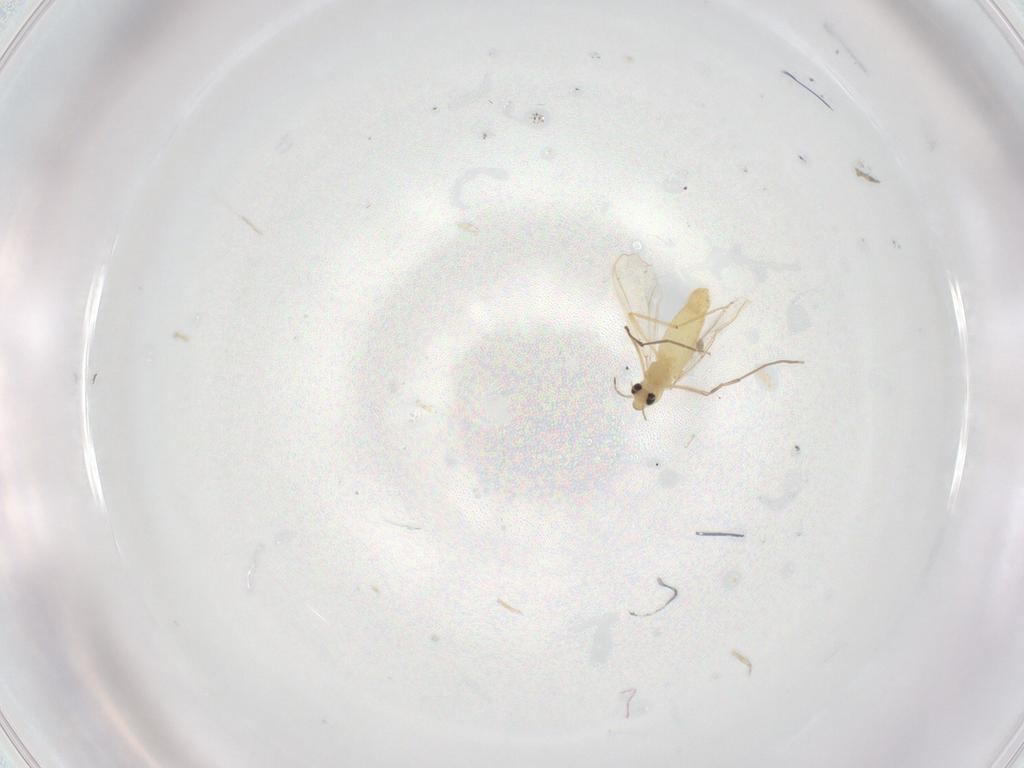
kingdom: Animalia
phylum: Arthropoda
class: Insecta
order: Diptera
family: Chironomidae
